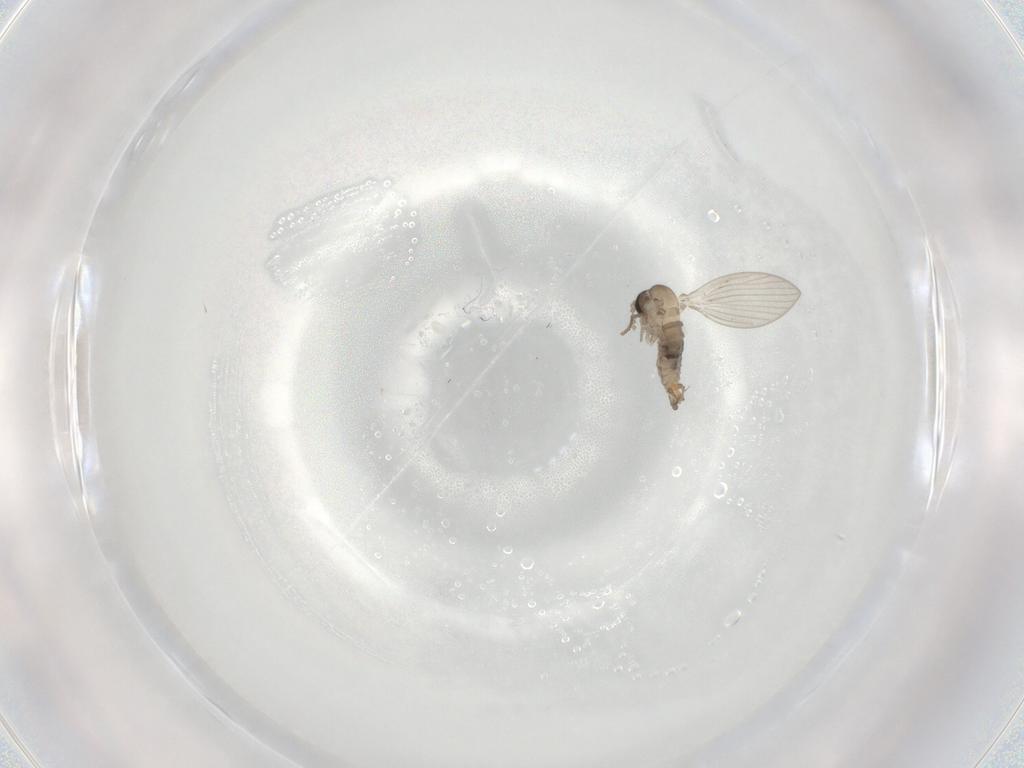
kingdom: Animalia
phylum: Arthropoda
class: Insecta
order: Diptera
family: Psychodidae
